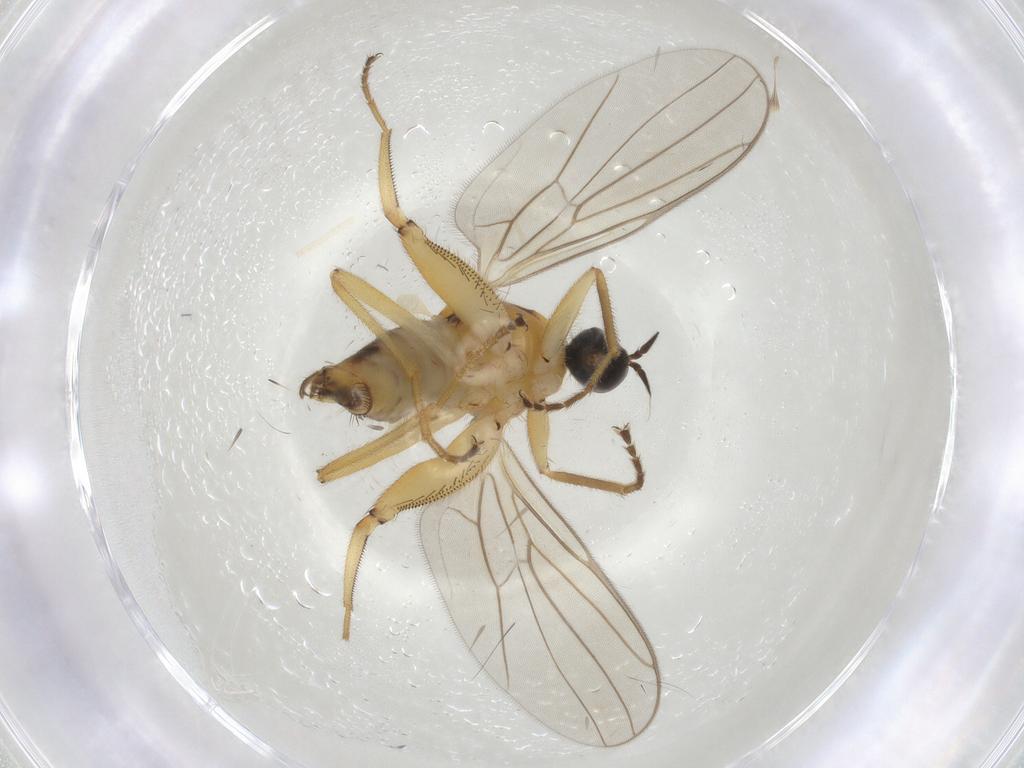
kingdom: Animalia
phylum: Arthropoda
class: Insecta
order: Diptera
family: Hybotidae
